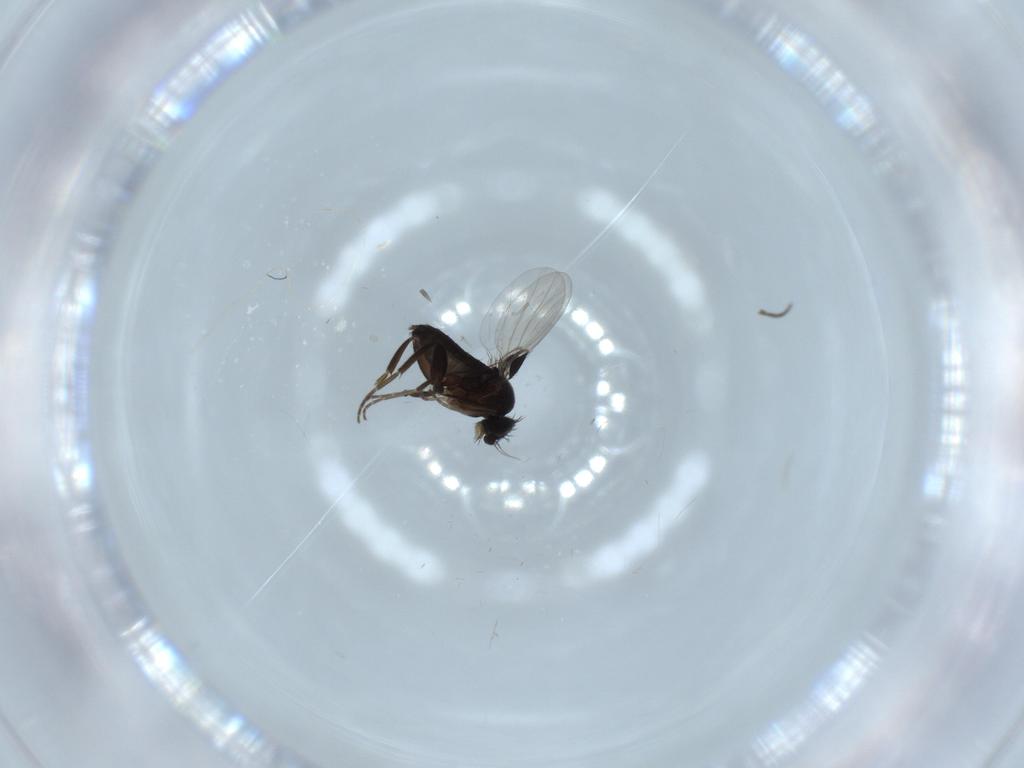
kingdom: Animalia
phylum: Arthropoda
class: Insecta
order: Diptera
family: Phoridae
